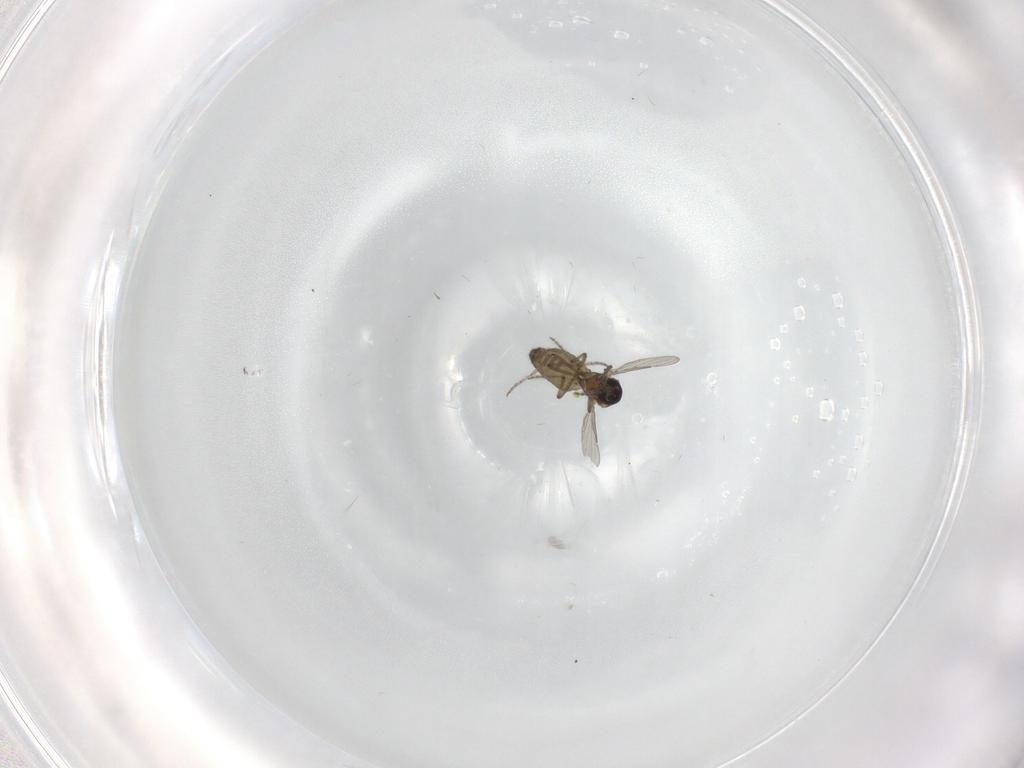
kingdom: Animalia
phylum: Arthropoda
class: Insecta
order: Diptera
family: Ceratopogonidae
